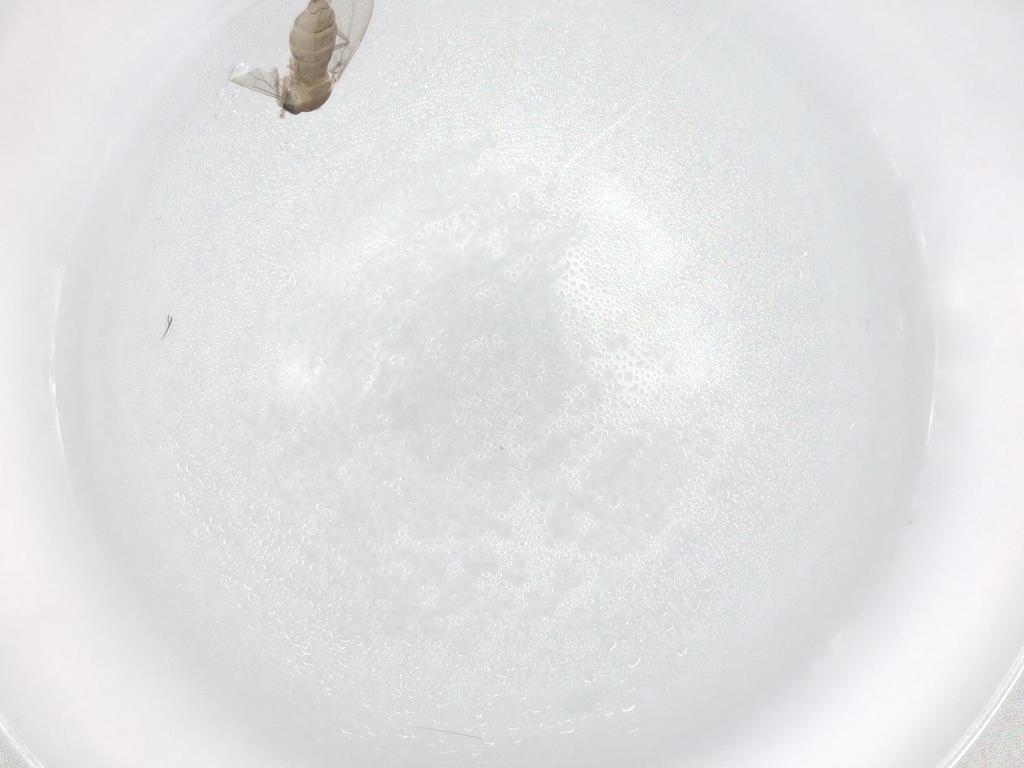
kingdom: Animalia
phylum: Arthropoda
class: Insecta
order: Diptera
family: Cecidomyiidae
